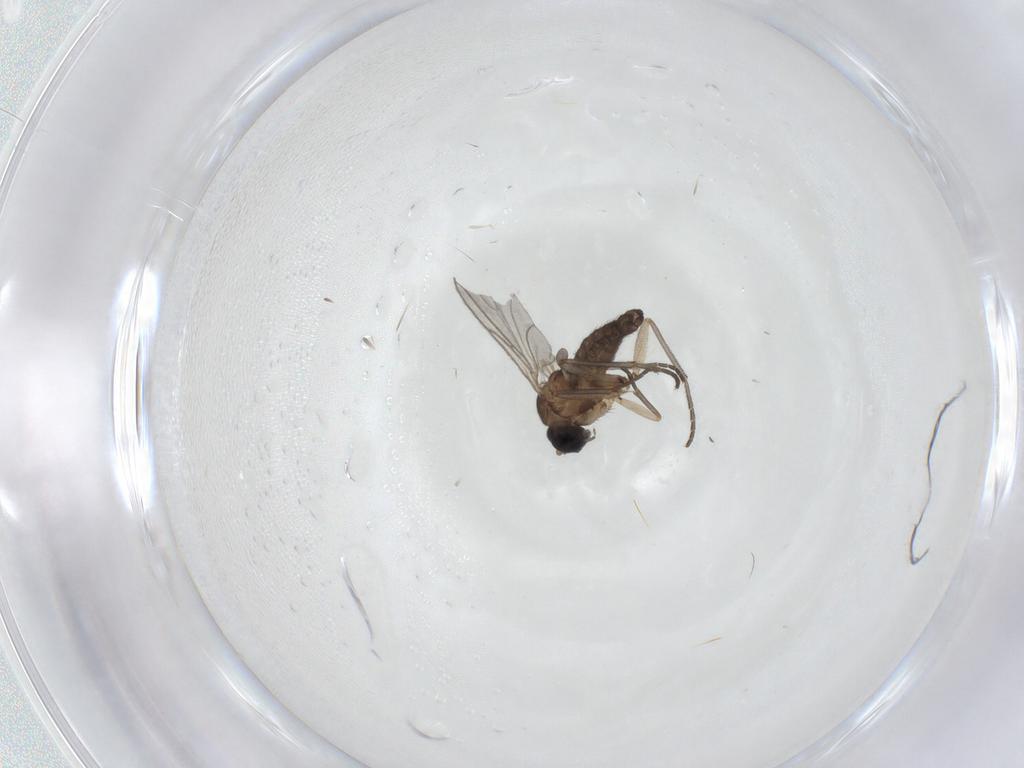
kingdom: Animalia
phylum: Arthropoda
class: Insecta
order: Diptera
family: Sciaridae
